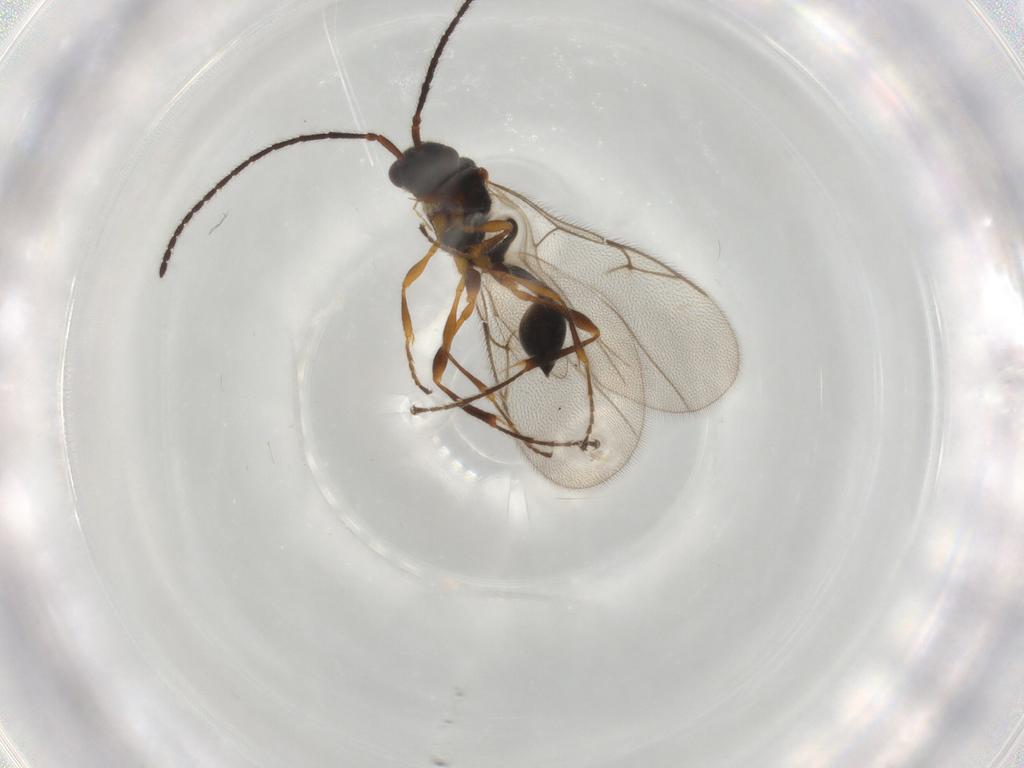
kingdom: Animalia
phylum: Arthropoda
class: Insecta
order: Hymenoptera
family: Diapriidae
